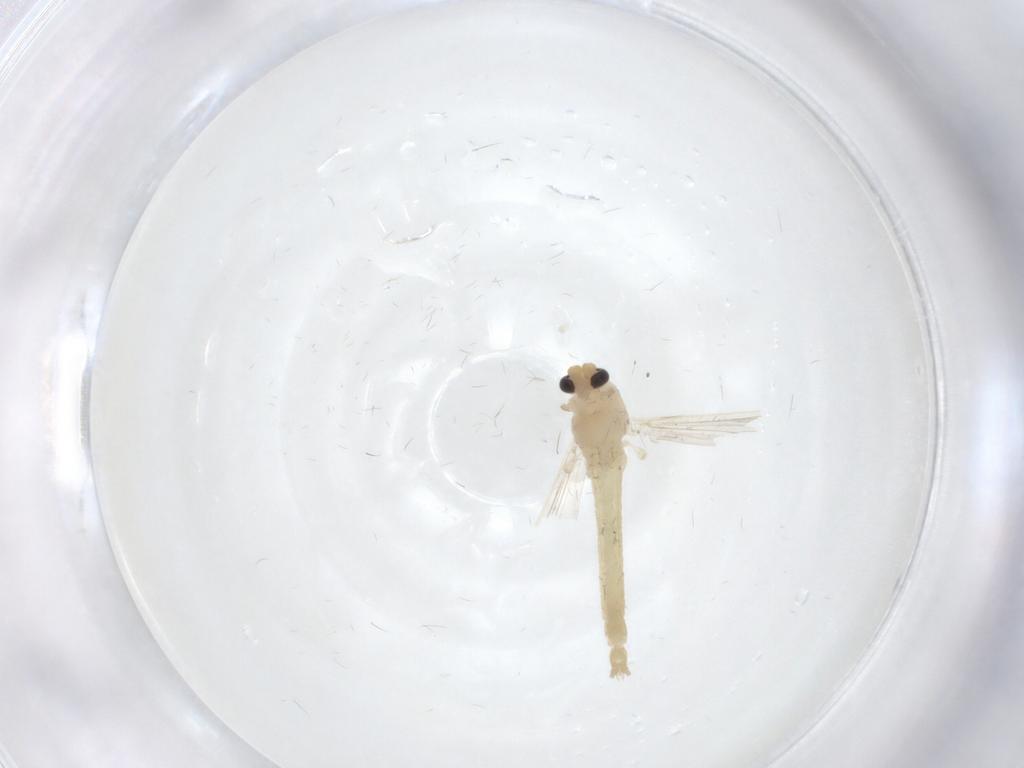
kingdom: Animalia
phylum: Arthropoda
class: Insecta
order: Diptera
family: Chironomidae
